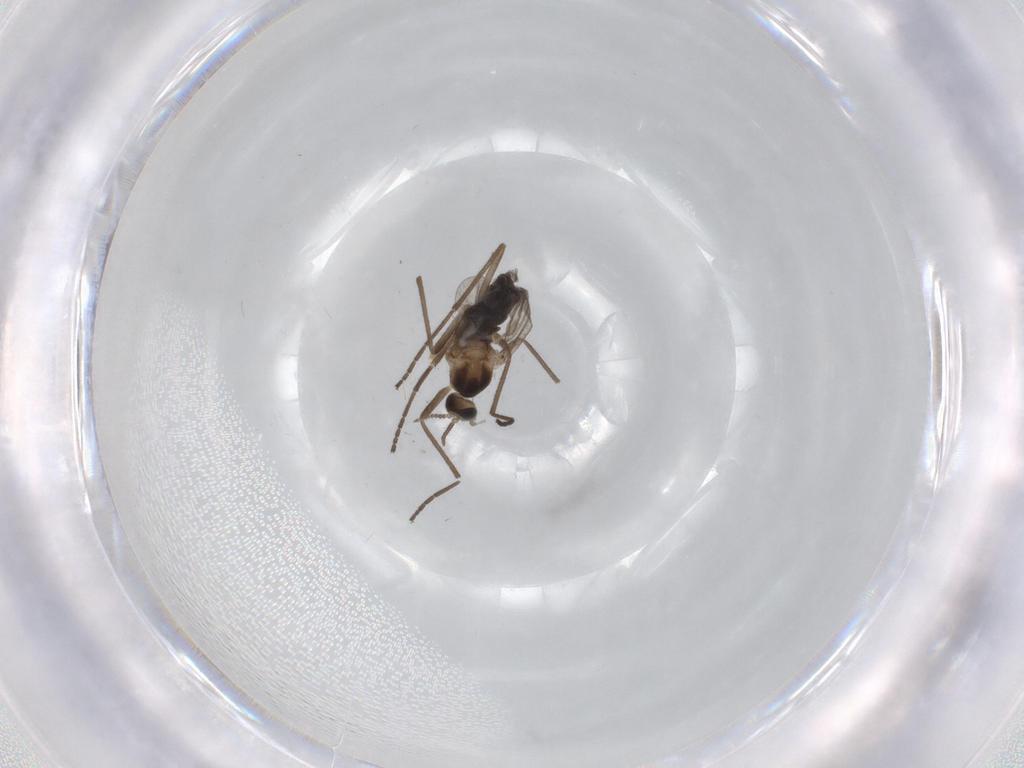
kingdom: Animalia
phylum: Arthropoda
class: Insecta
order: Diptera
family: Cecidomyiidae
